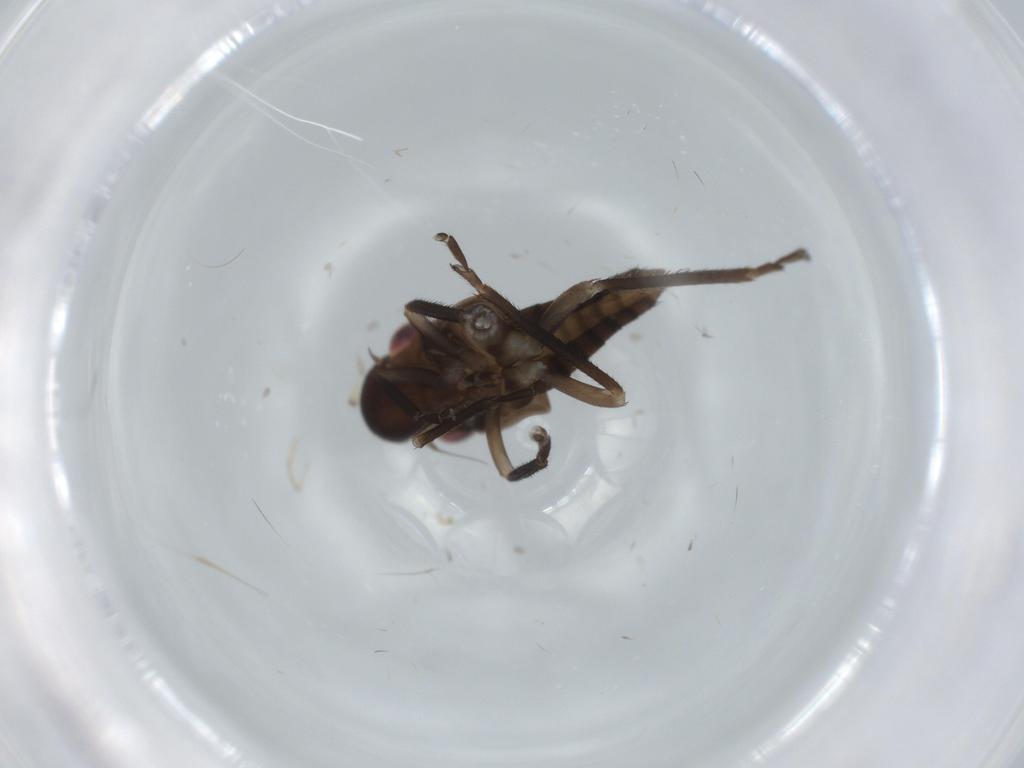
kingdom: Animalia
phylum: Arthropoda
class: Insecta
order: Hemiptera
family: Cicadellidae
